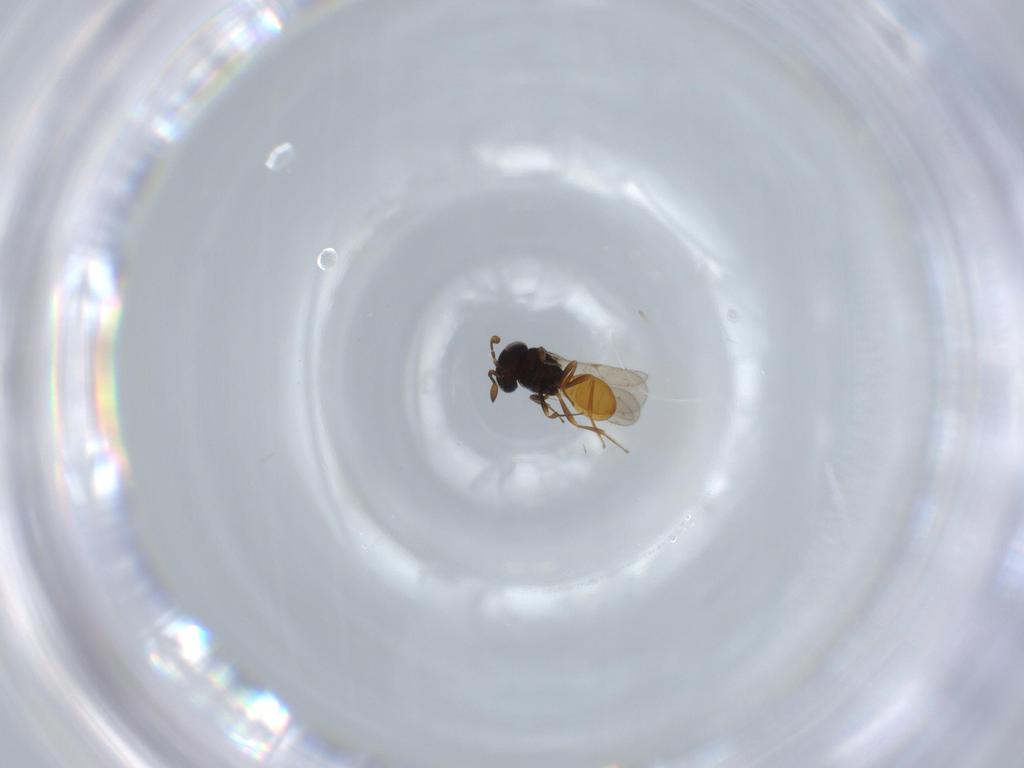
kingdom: Animalia
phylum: Arthropoda
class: Insecta
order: Hymenoptera
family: Scelionidae
